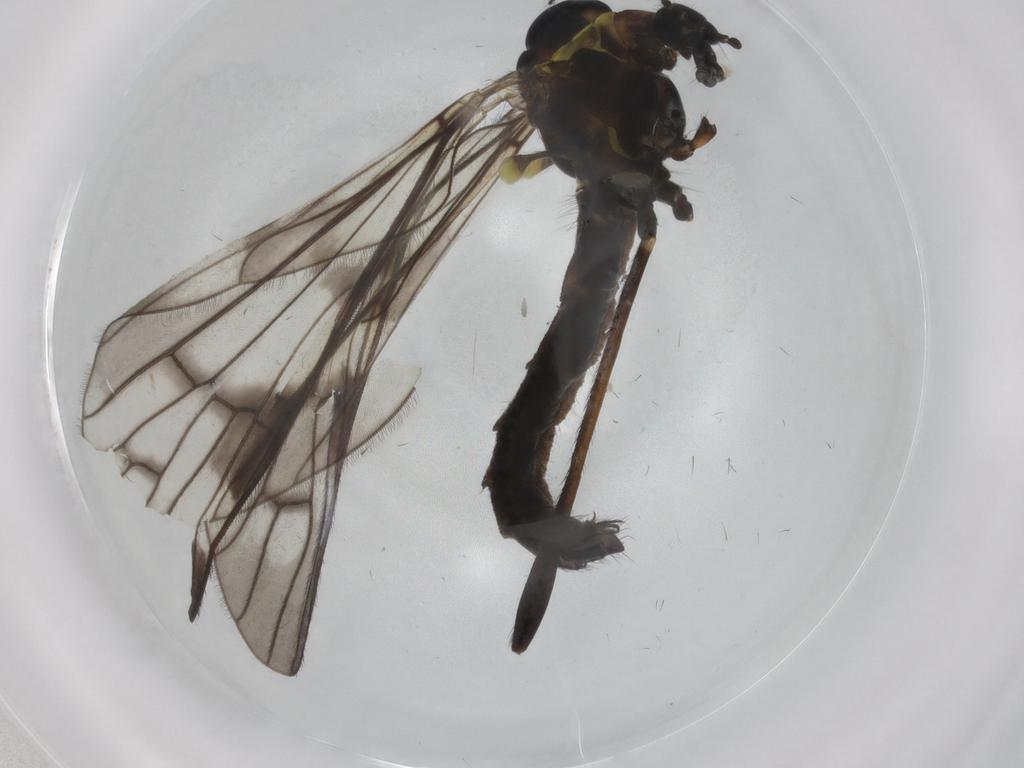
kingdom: Animalia
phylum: Arthropoda
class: Insecta
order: Diptera
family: Limoniidae
